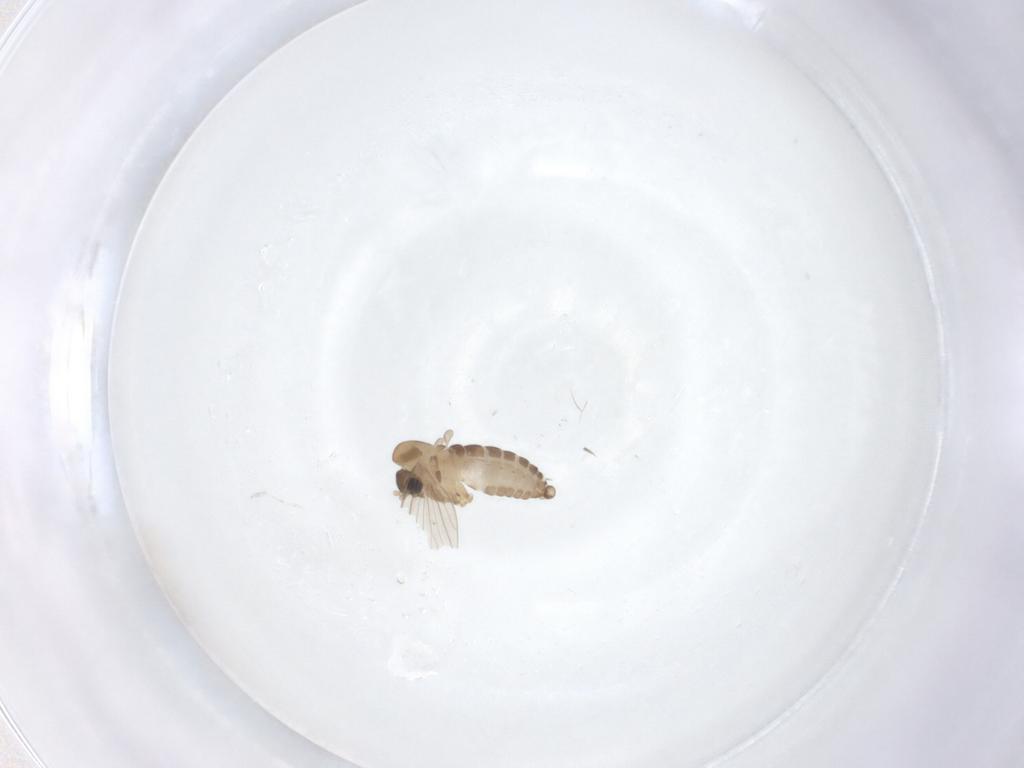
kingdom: Animalia
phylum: Arthropoda
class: Insecta
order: Diptera
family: Psychodidae
